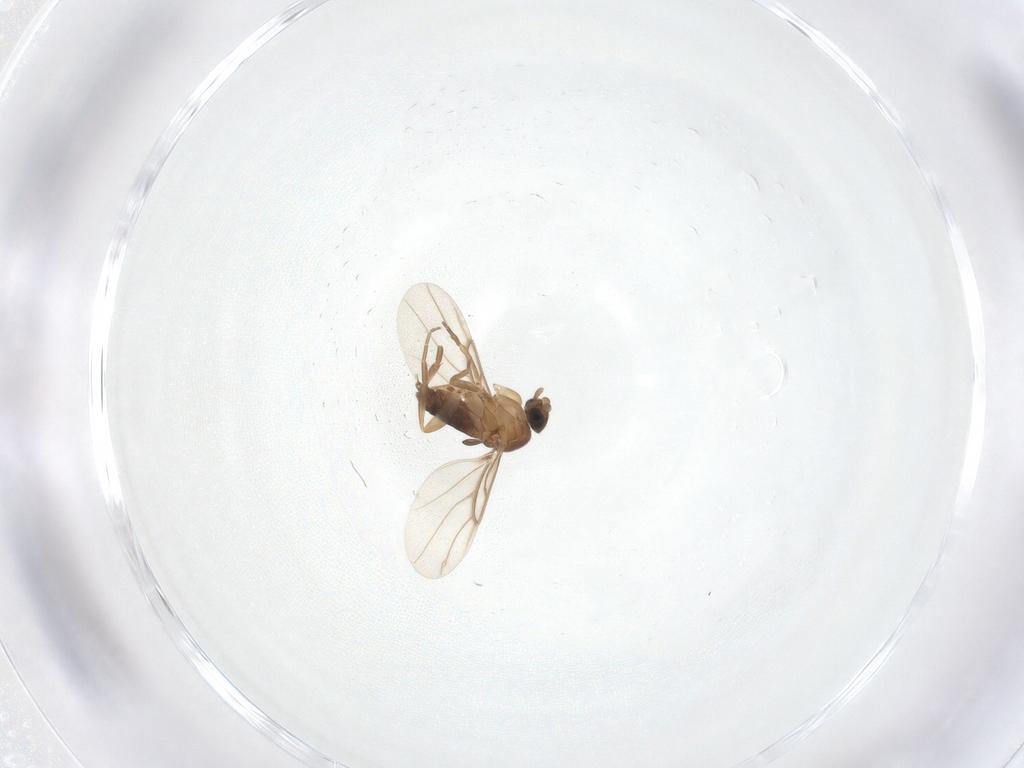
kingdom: Animalia
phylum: Arthropoda
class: Insecta
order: Diptera
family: Phoridae
